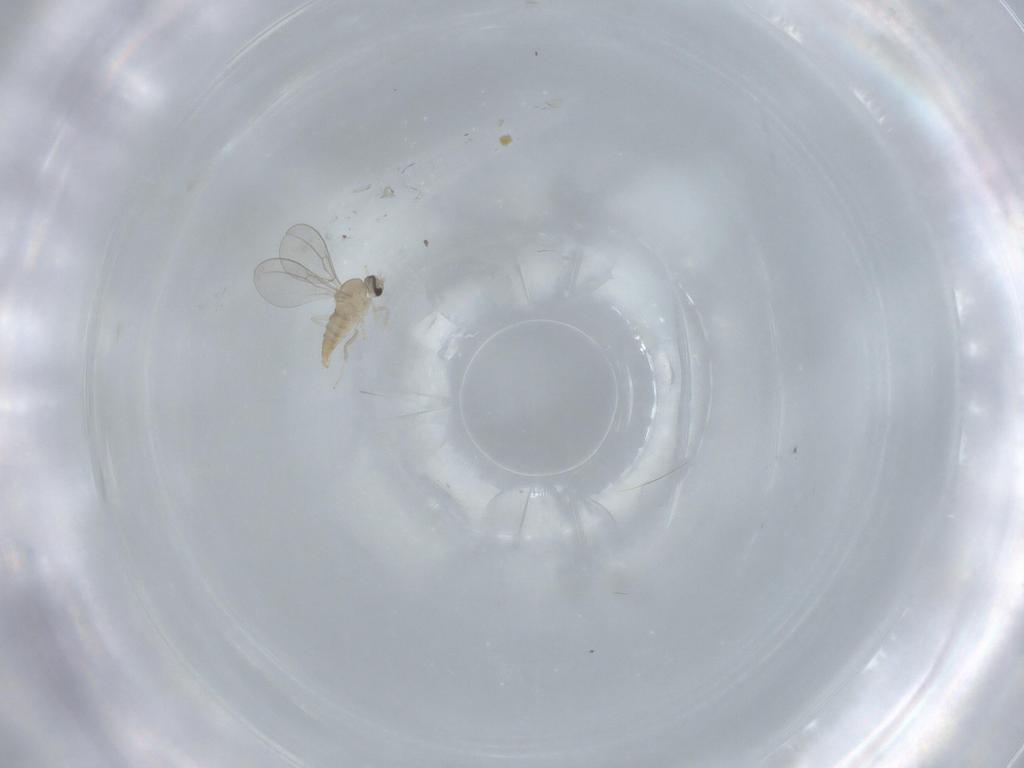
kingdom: Animalia
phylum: Arthropoda
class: Insecta
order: Diptera
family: Cecidomyiidae
